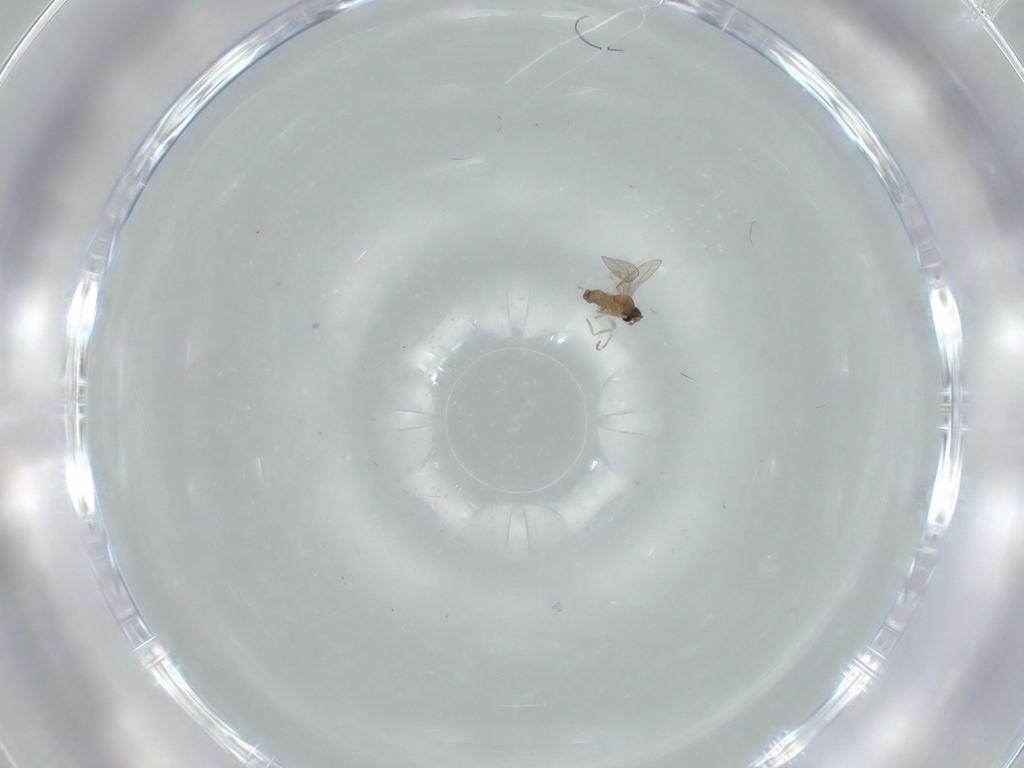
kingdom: Animalia
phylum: Arthropoda
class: Insecta
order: Diptera
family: Cecidomyiidae
